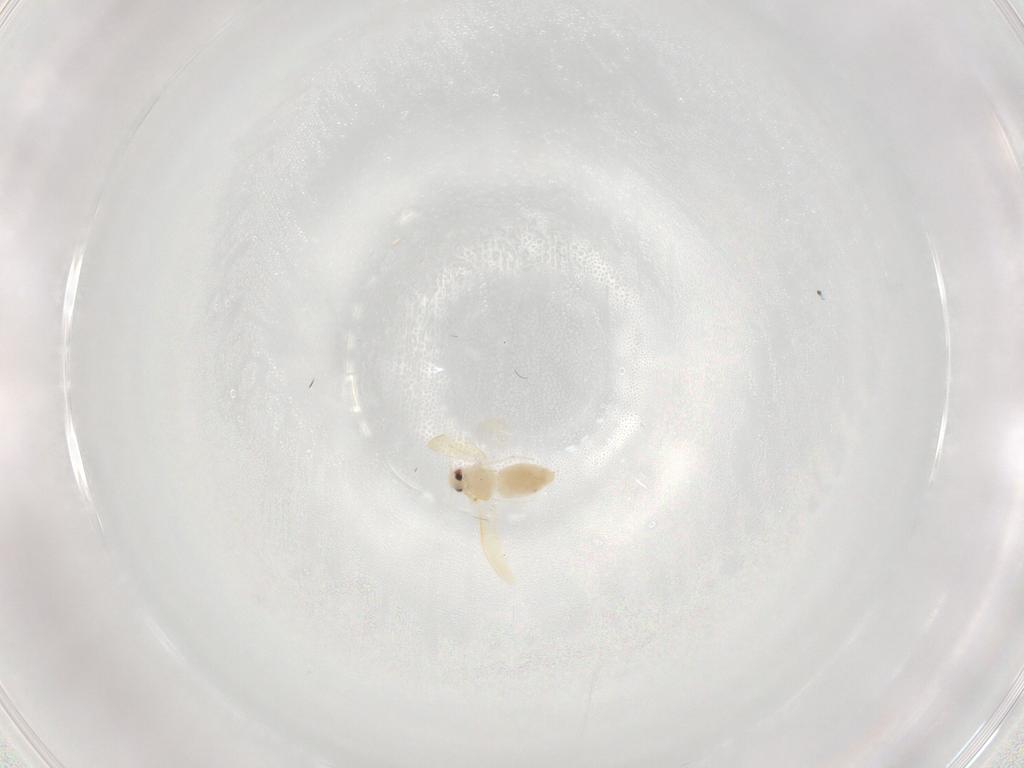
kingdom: Animalia
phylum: Arthropoda
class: Insecta
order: Hemiptera
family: Aleyrodidae
